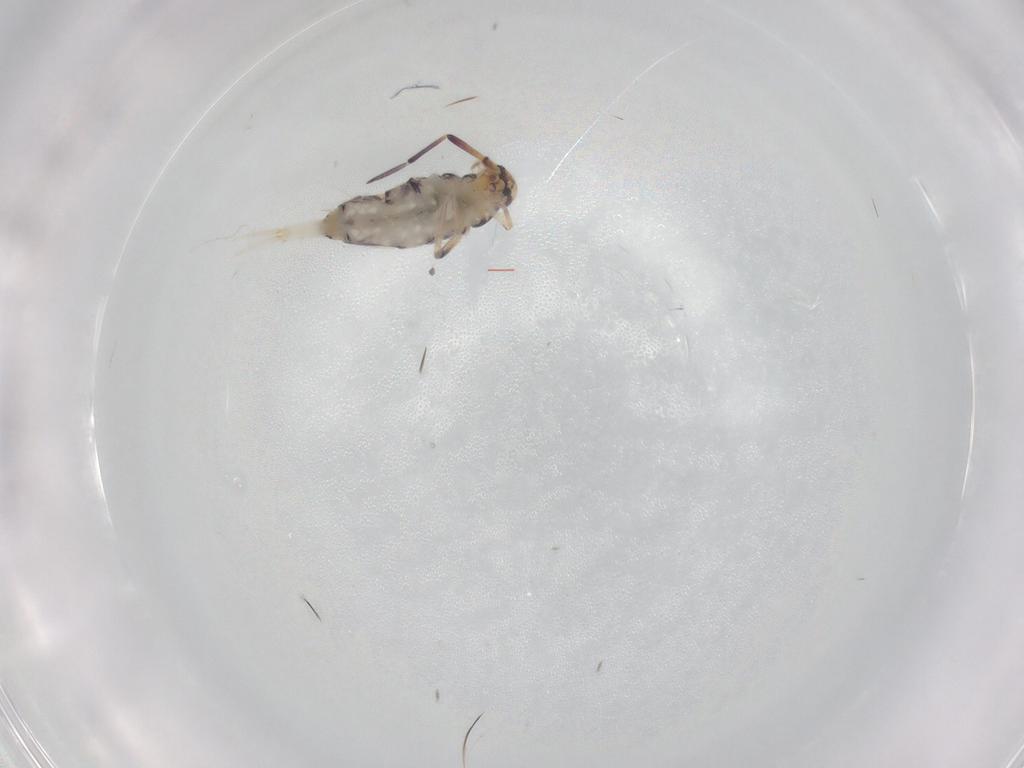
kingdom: Animalia
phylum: Arthropoda
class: Collembola
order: Entomobryomorpha
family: Entomobryidae
